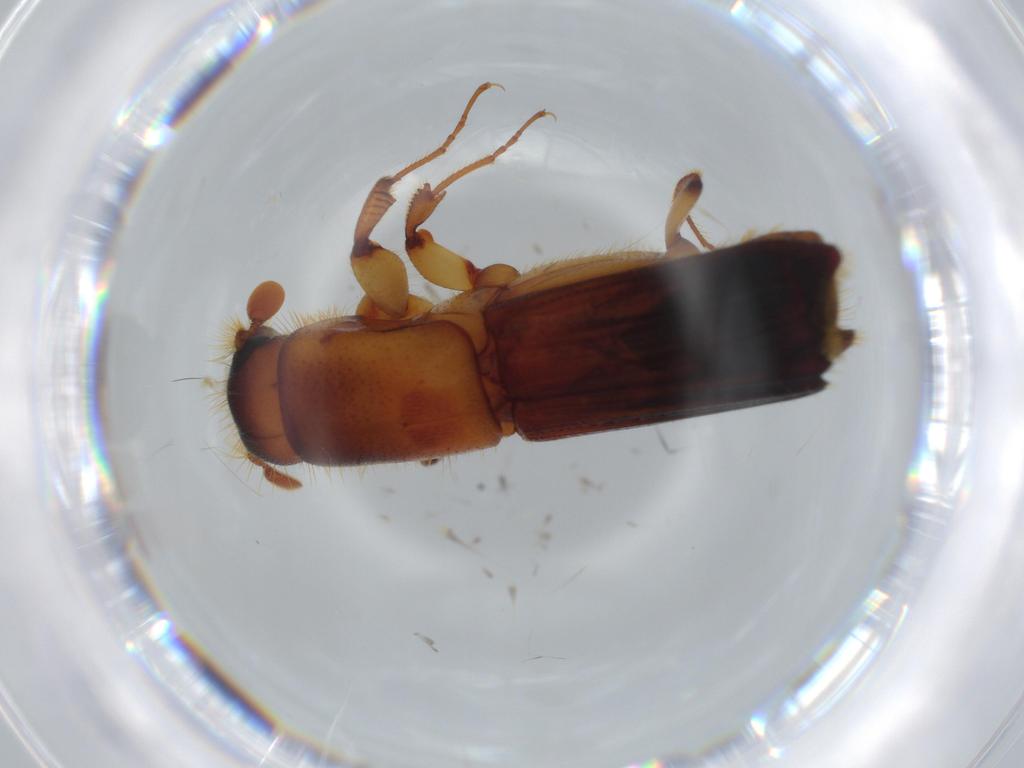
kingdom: Animalia
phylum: Arthropoda
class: Insecta
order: Coleoptera
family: Curculionidae
